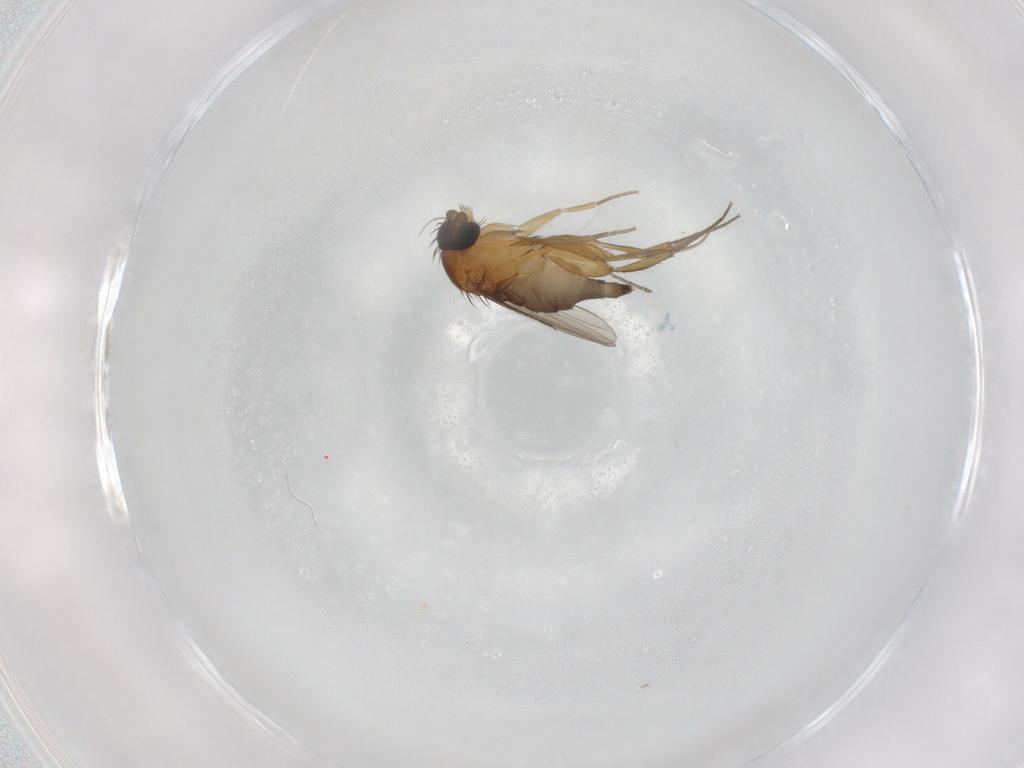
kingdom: Animalia
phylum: Arthropoda
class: Insecta
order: Diptera
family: Phoridae
